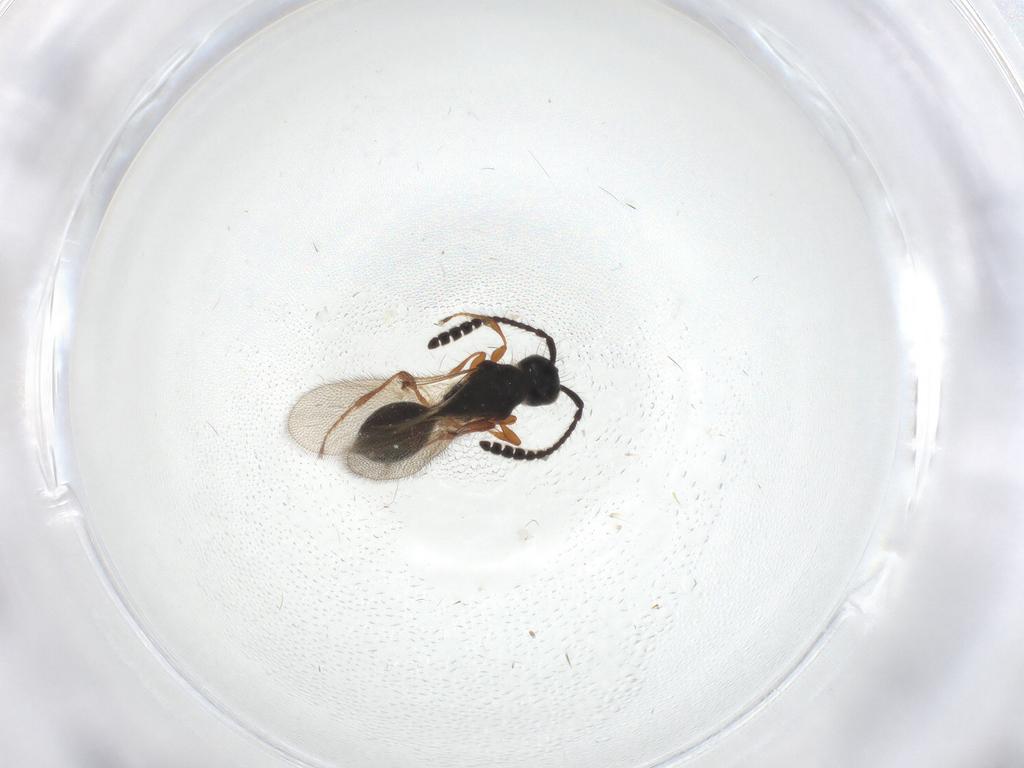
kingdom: Animalia
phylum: Arthropoda
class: Insecta
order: Hymenoptera
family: Diapriidae
